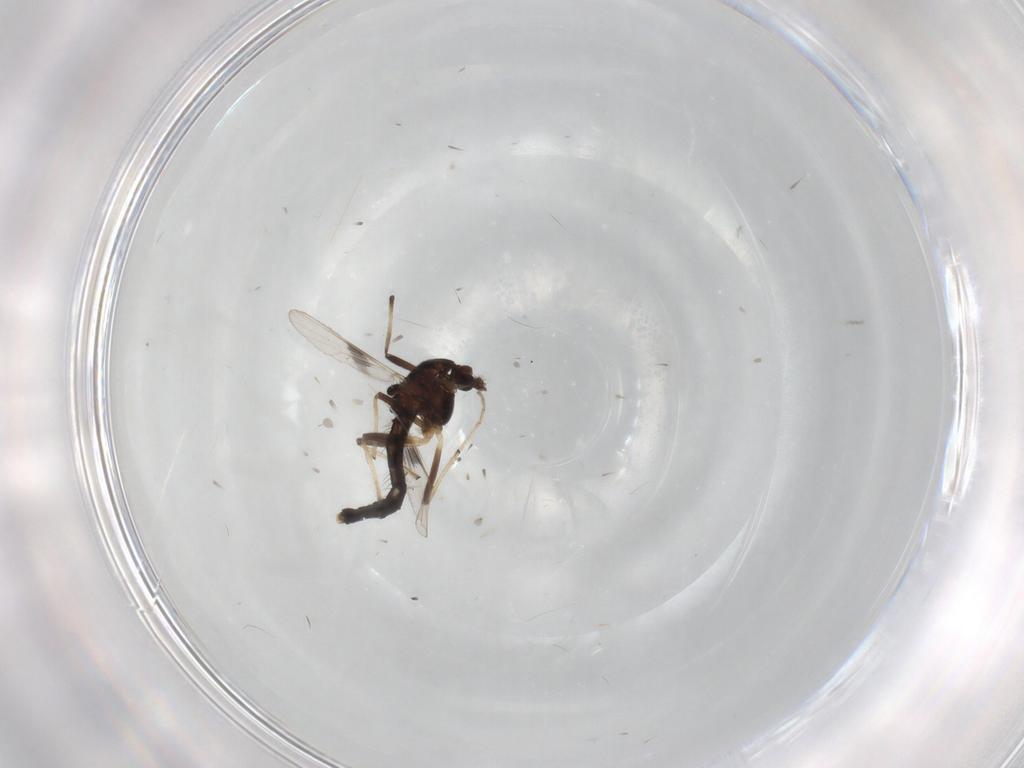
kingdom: Animalia
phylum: Arthropoda
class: Insecta
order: Diptera
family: Chironomidae
